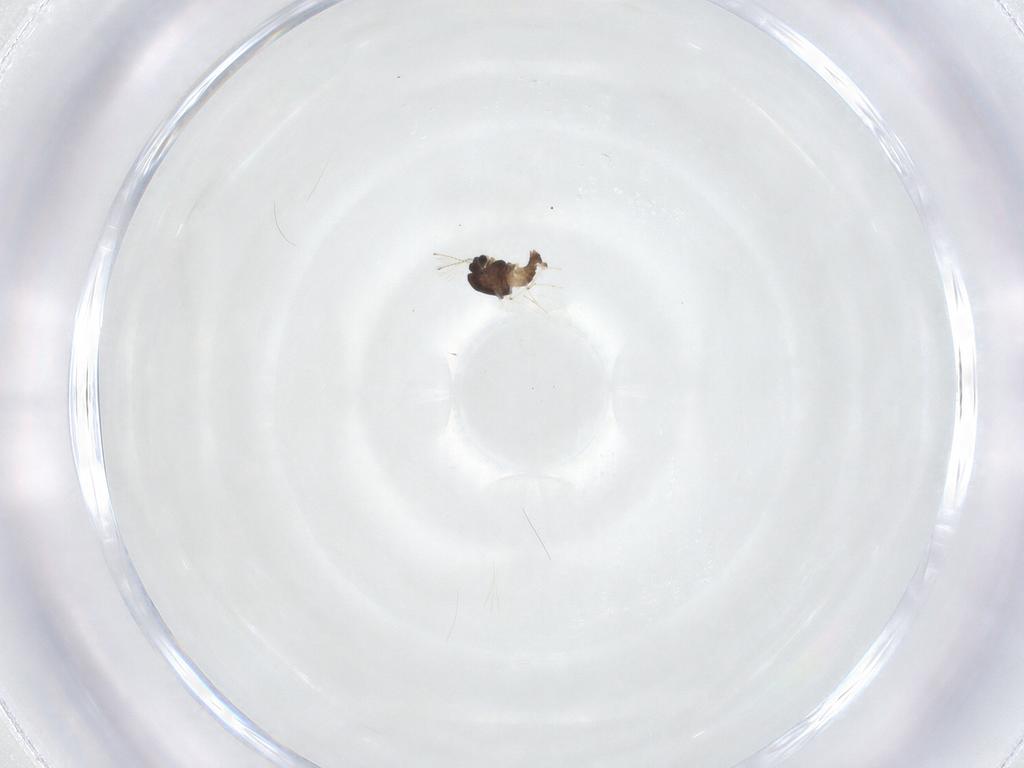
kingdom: Animalia
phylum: Arthropoda
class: Insecta
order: Diptera
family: Chironomidae
